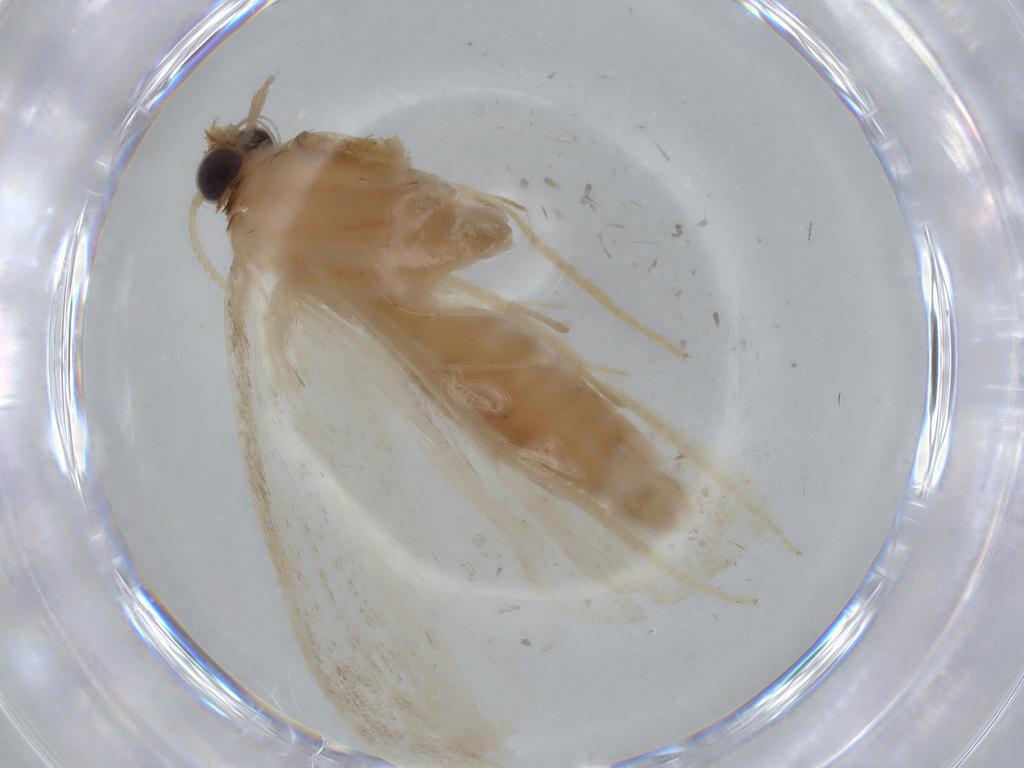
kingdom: Animalia
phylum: Arthropoda
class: Insecta
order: Lepidoptera
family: Crambidae
